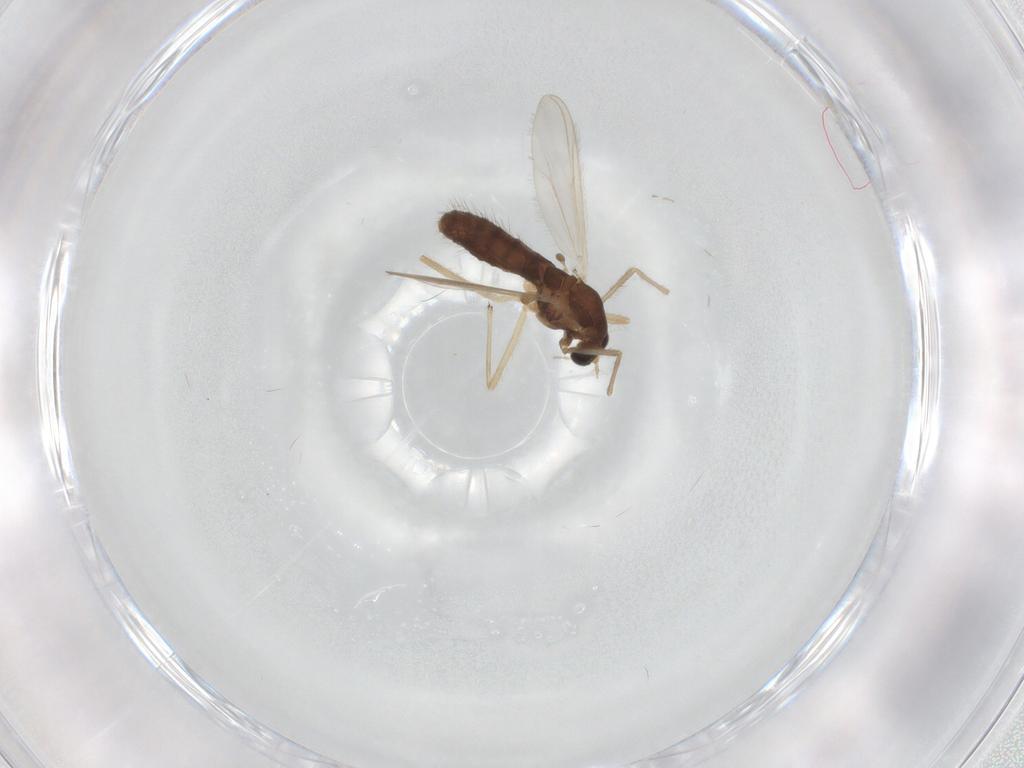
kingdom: Animalia
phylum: Arthropoda
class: Insecta
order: Diptera
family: Chironomidae
